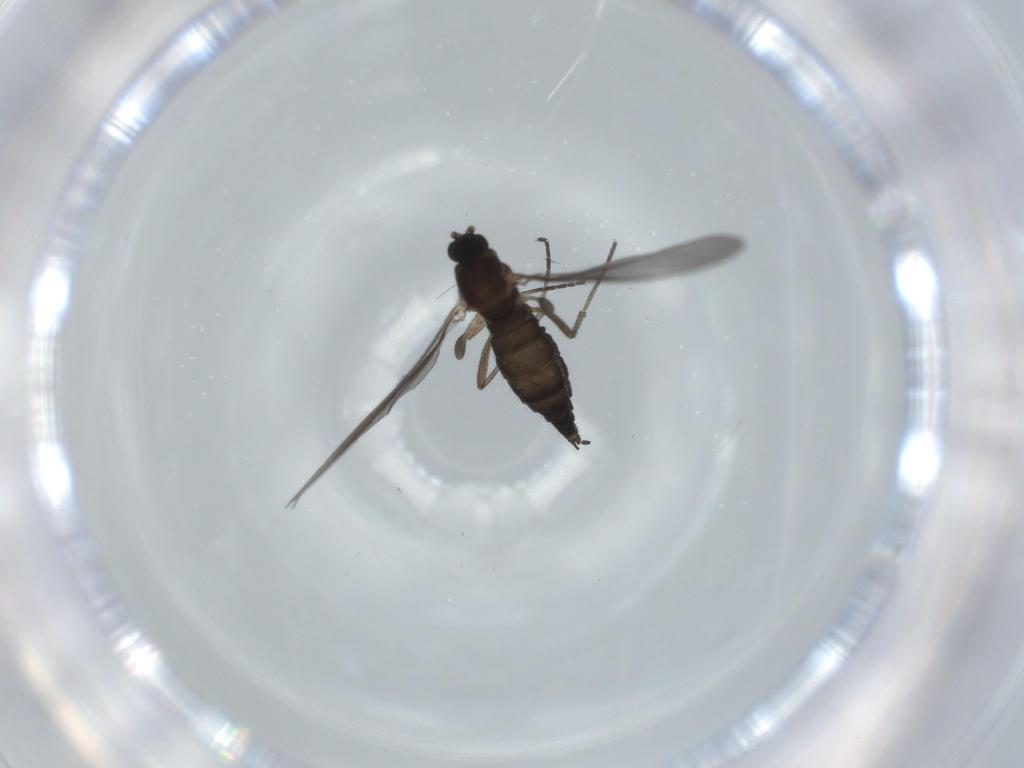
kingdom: Animalia
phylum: Arthropoda
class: Insecta
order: Diptera
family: Sciaridae
